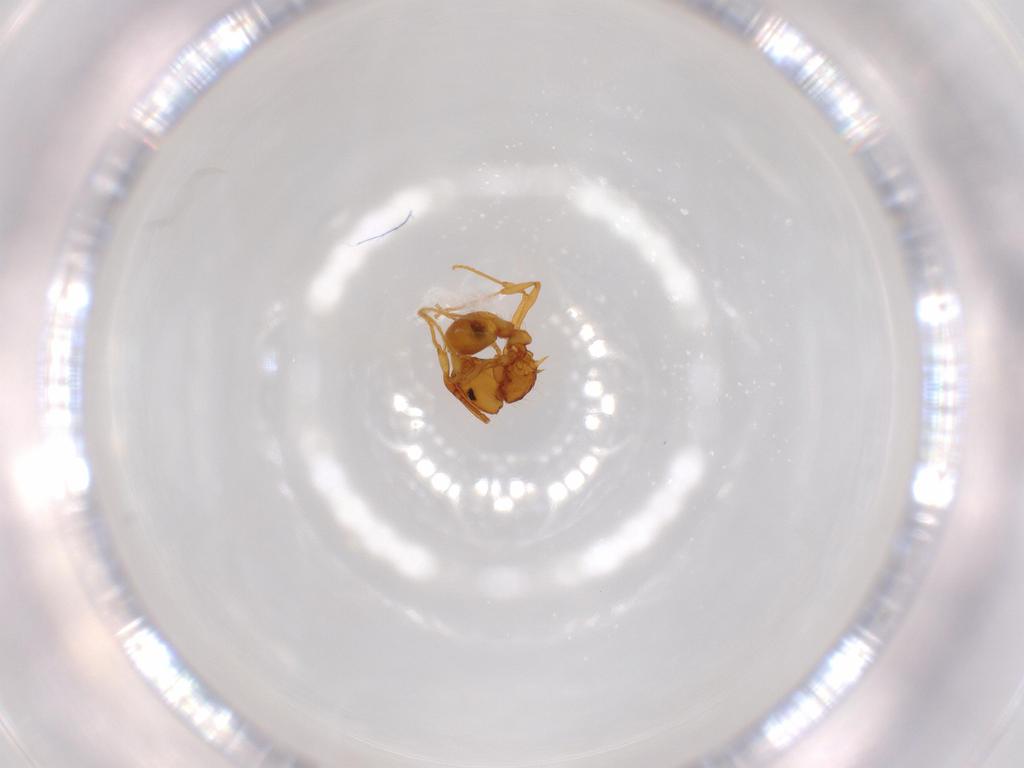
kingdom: Animalia
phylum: Arthropoda
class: Insecta
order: Hymenoptera
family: Formicidae
